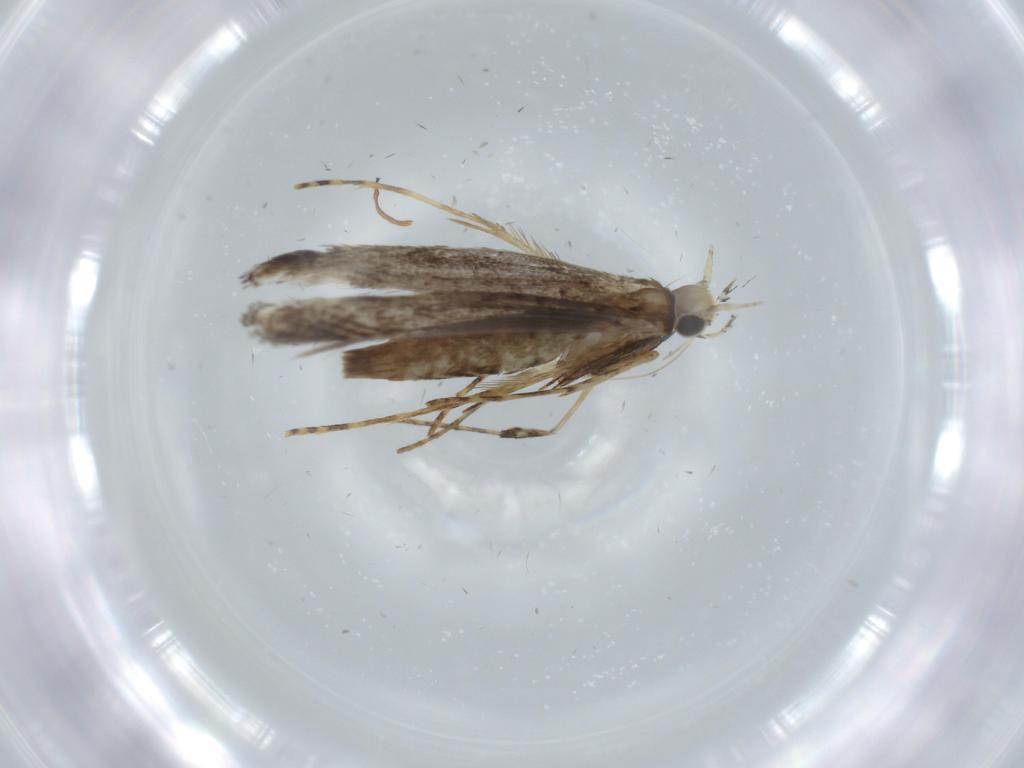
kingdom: Animalia
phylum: Arthropoda
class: Insecta
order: Lepidoptera
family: Gracillariidae
